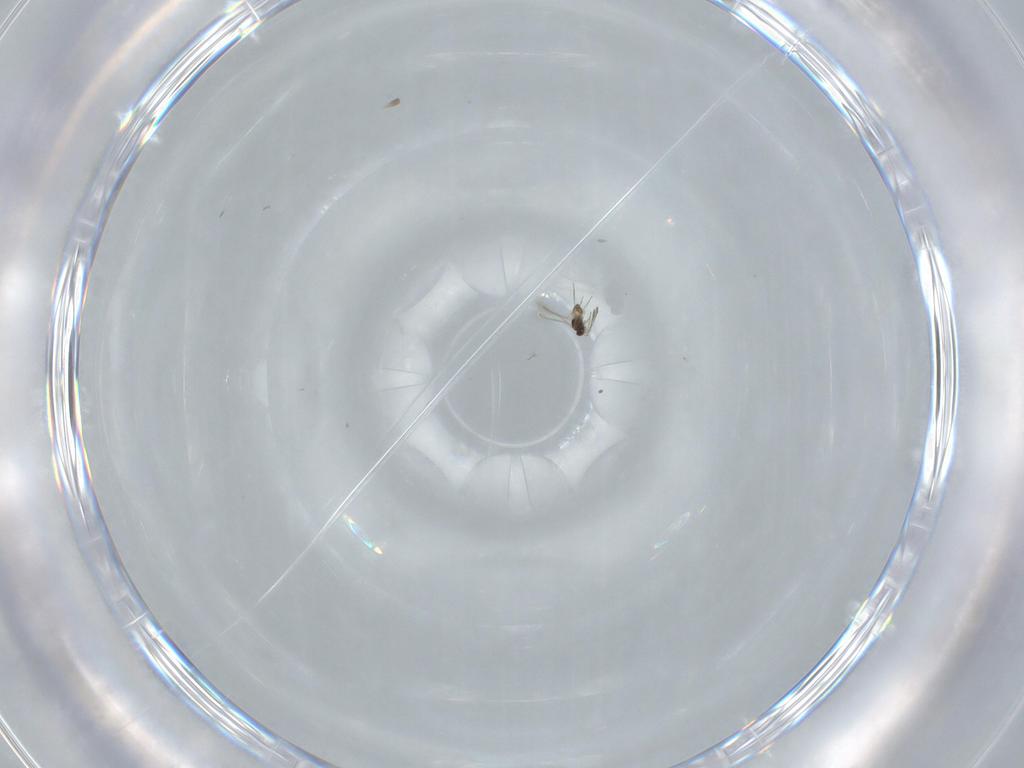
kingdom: Animalia
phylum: Arthropoda
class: Insecta
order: Hymenoptera
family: Mymaridae
